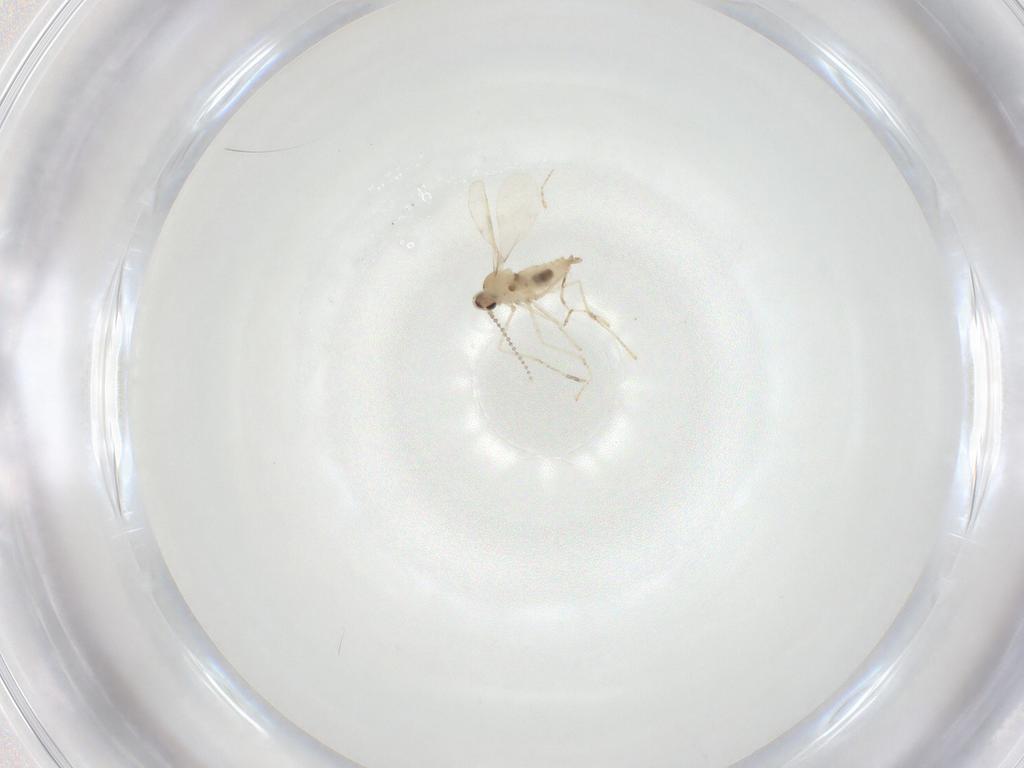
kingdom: Animalia
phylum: Arthropoda
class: Insecta
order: Diptera
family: Cecidomyiidae
